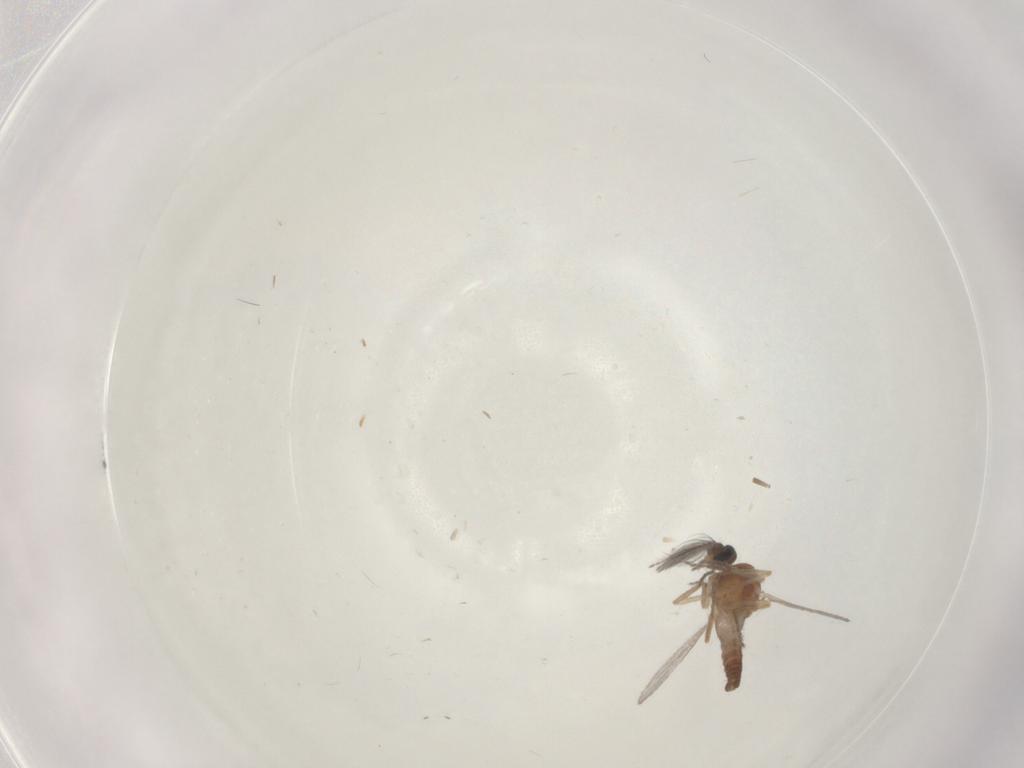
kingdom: Animalia
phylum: Arthropoda
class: Insecta
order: Diptera
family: Ceratopogonidae
